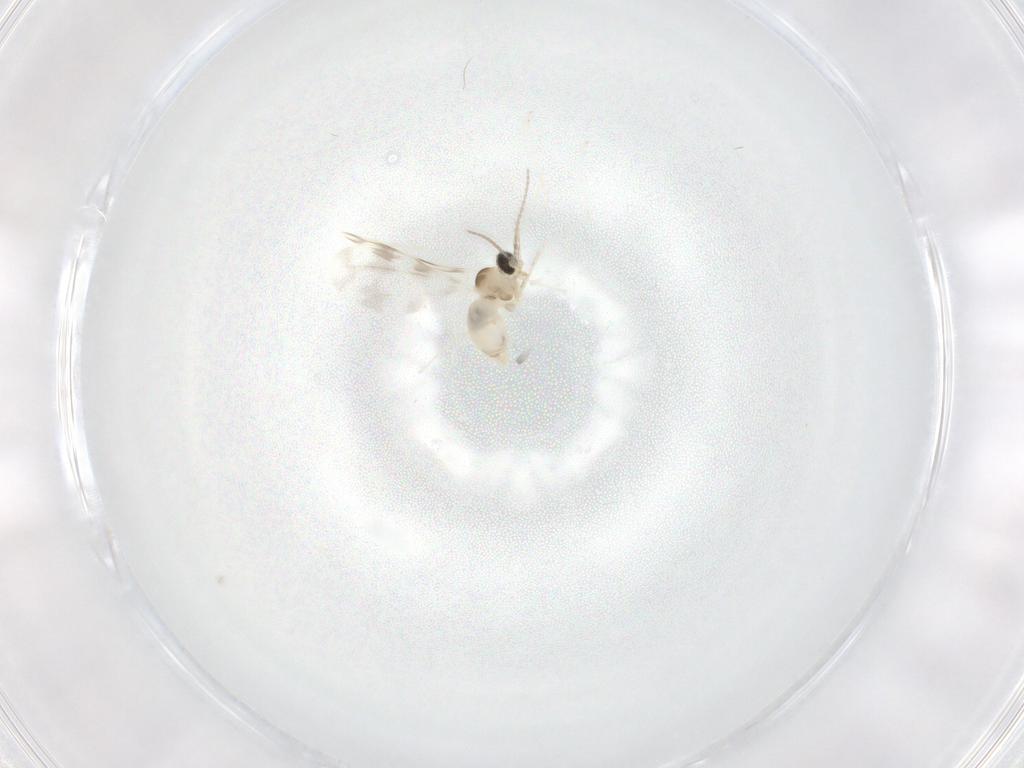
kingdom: Animalia
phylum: Arthropoda
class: Insecta
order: Diptera
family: Cecidomyiidae
